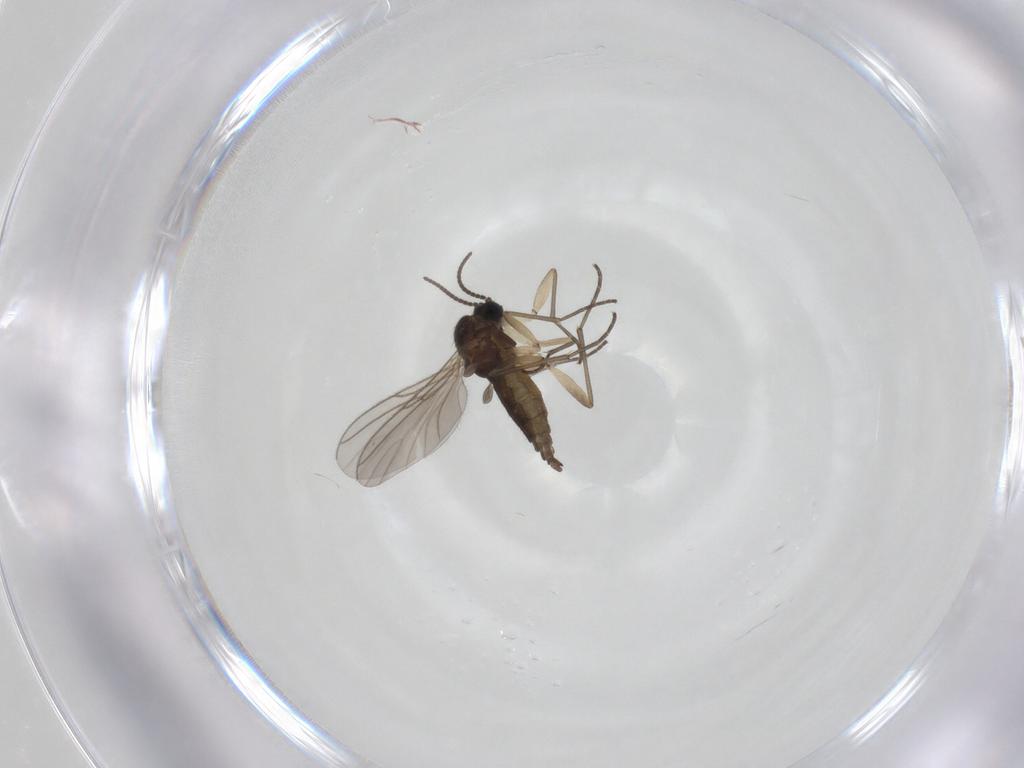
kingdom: Animalia
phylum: Arthropoda
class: Insecta
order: Diptera
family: Sciaridae
